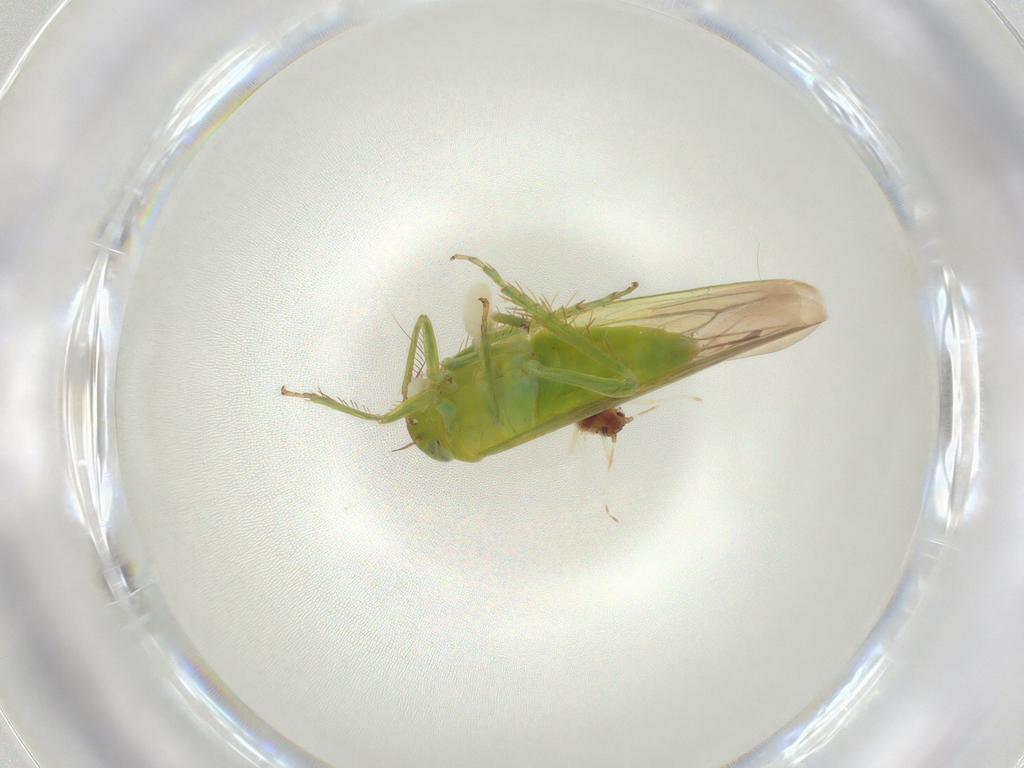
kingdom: Animalia
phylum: Arthropoda
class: Insecta
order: Hemiptera
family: Cicadellidae
